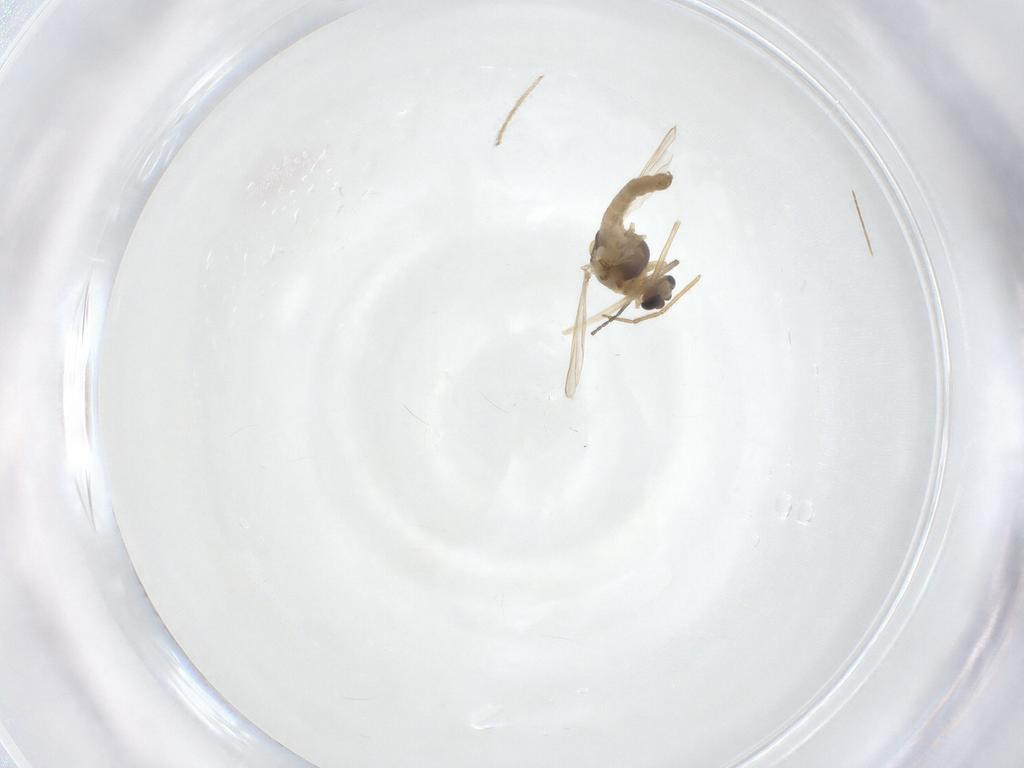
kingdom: Animalia
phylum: Arthropoda
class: Insecta
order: Diptera
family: Chironomidae
